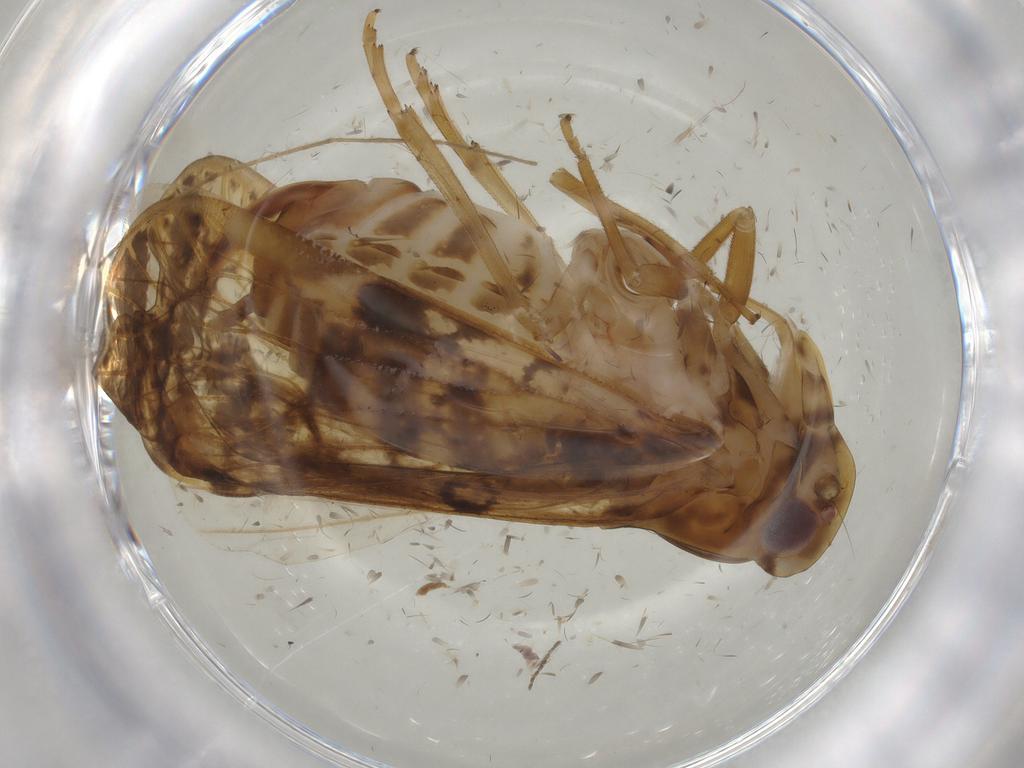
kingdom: Animalia
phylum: Arthropoda
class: Insecta
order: Hemiptera
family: Cixiidae
